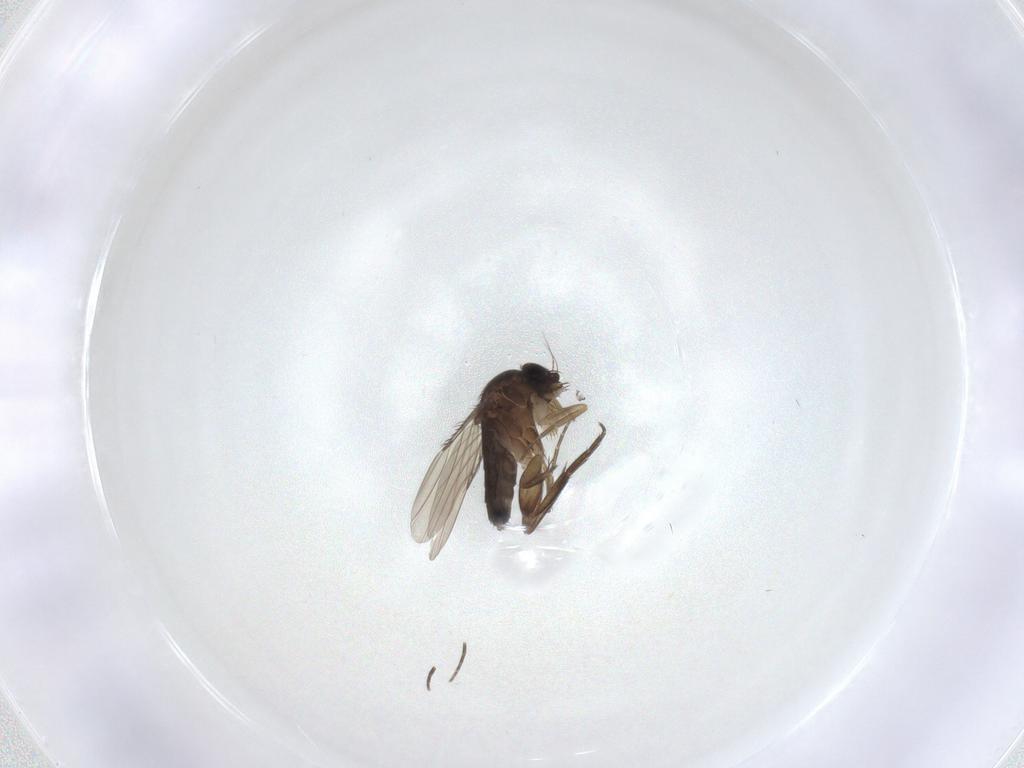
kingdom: Animalia
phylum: Arthropoda
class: Insecta
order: Diptera
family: Phoridae
